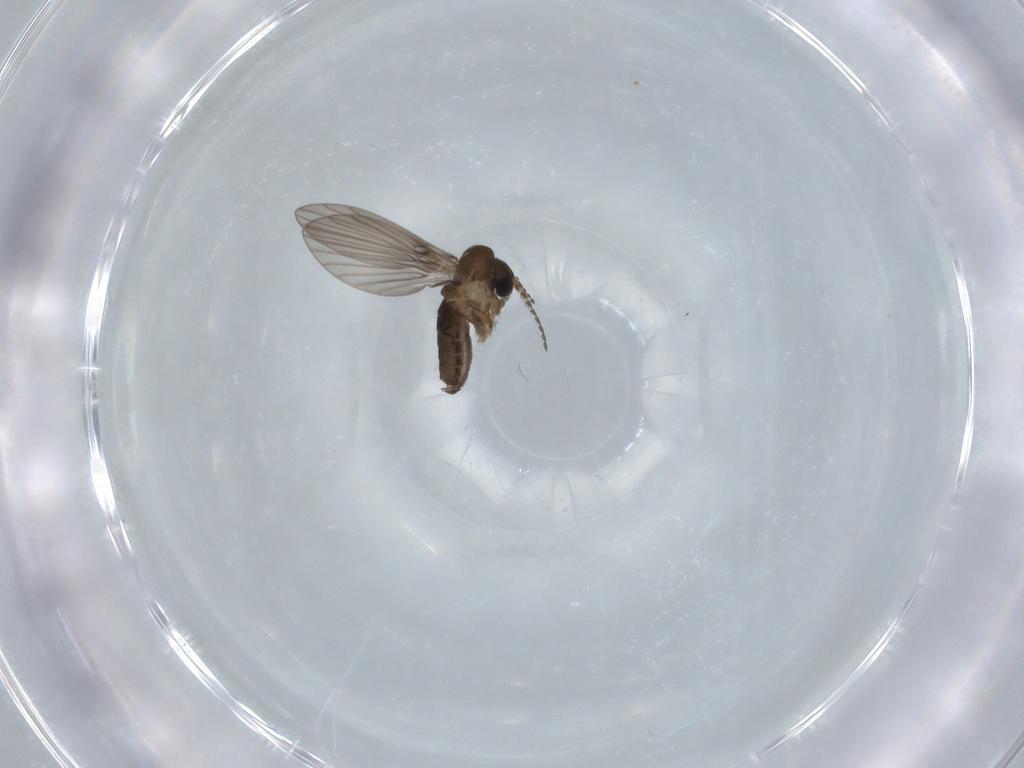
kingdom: Animalia
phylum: Arthropoda
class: Insecta
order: Diptera
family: Psychodidae
